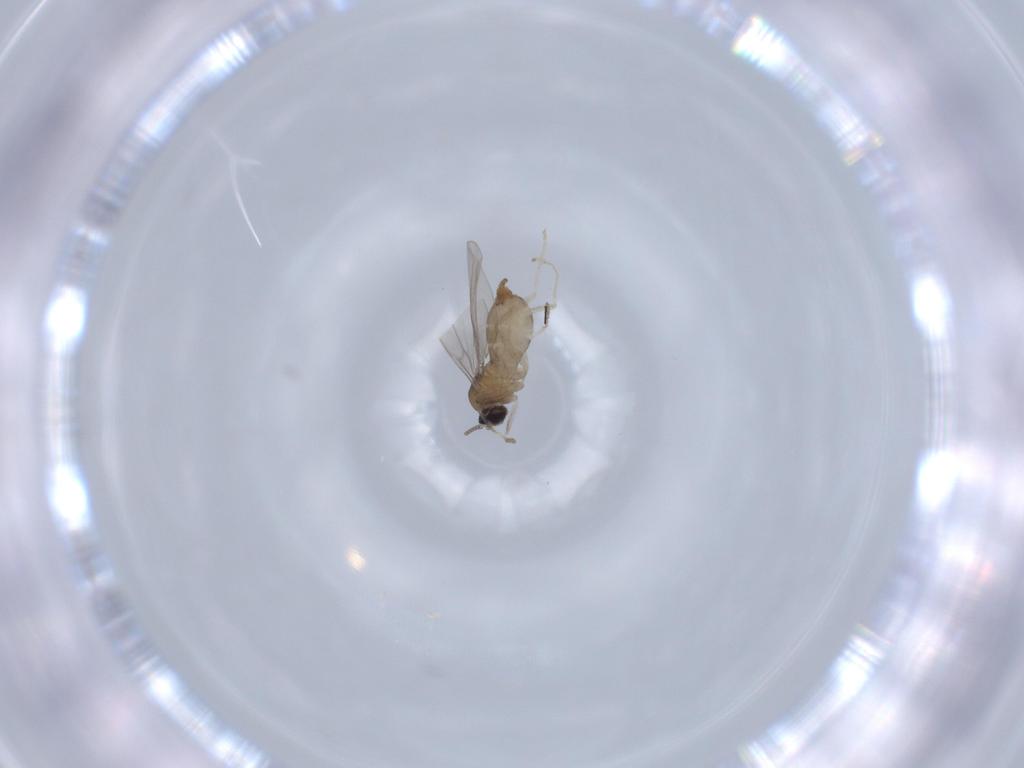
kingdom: Animalia
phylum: Arthropoda
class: Insecta
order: Diptera
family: Cecidomyiidae
